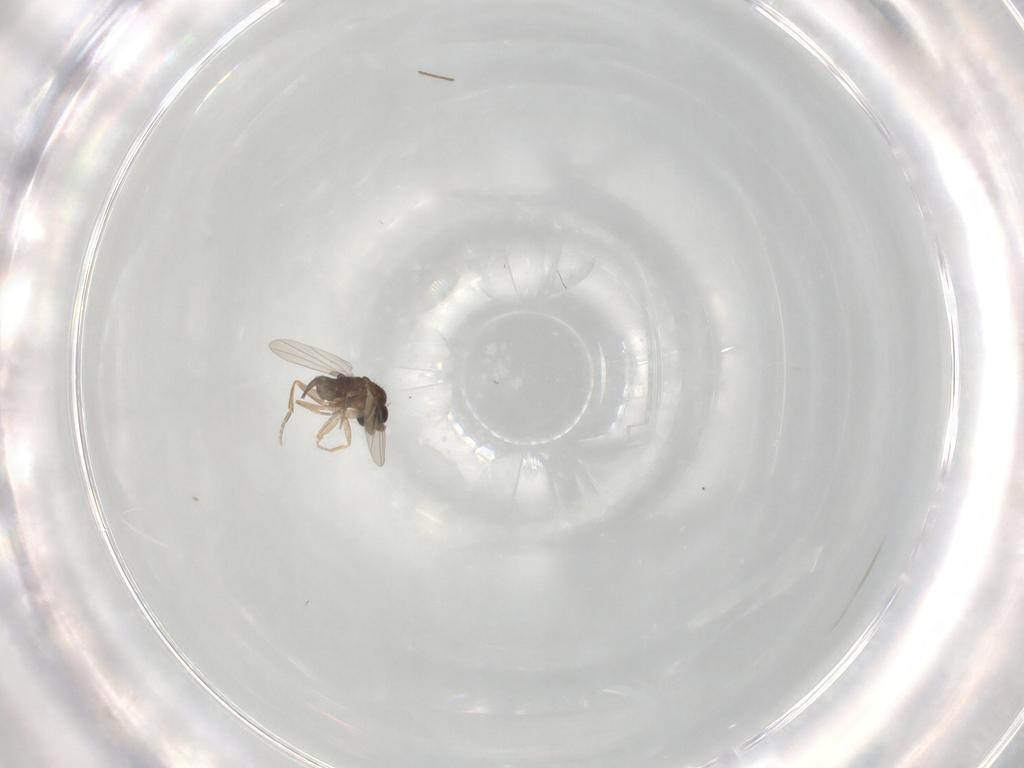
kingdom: Animalia
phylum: Arthropoda
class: Insecta
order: Diptera
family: Phoridae
